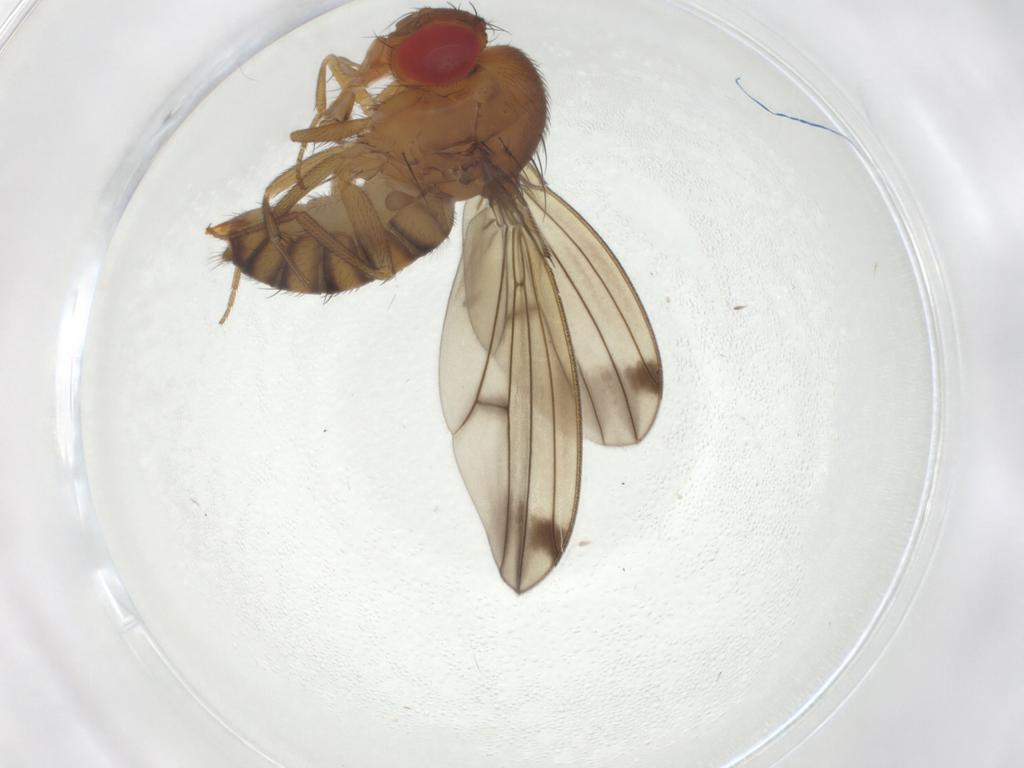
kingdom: Animalia
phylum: Arthropoda
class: Insecta
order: Diptera
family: Drosophilidae
